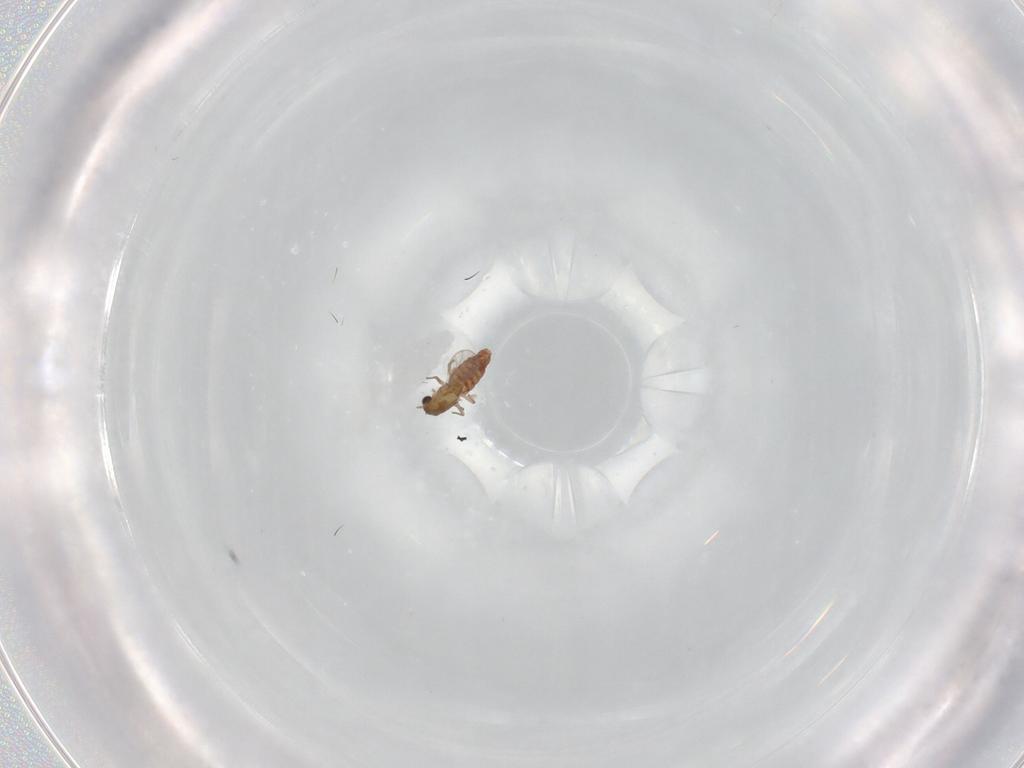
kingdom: Animalia
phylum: Arthropoda
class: Insecta
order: Diptera
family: Chironomidae
